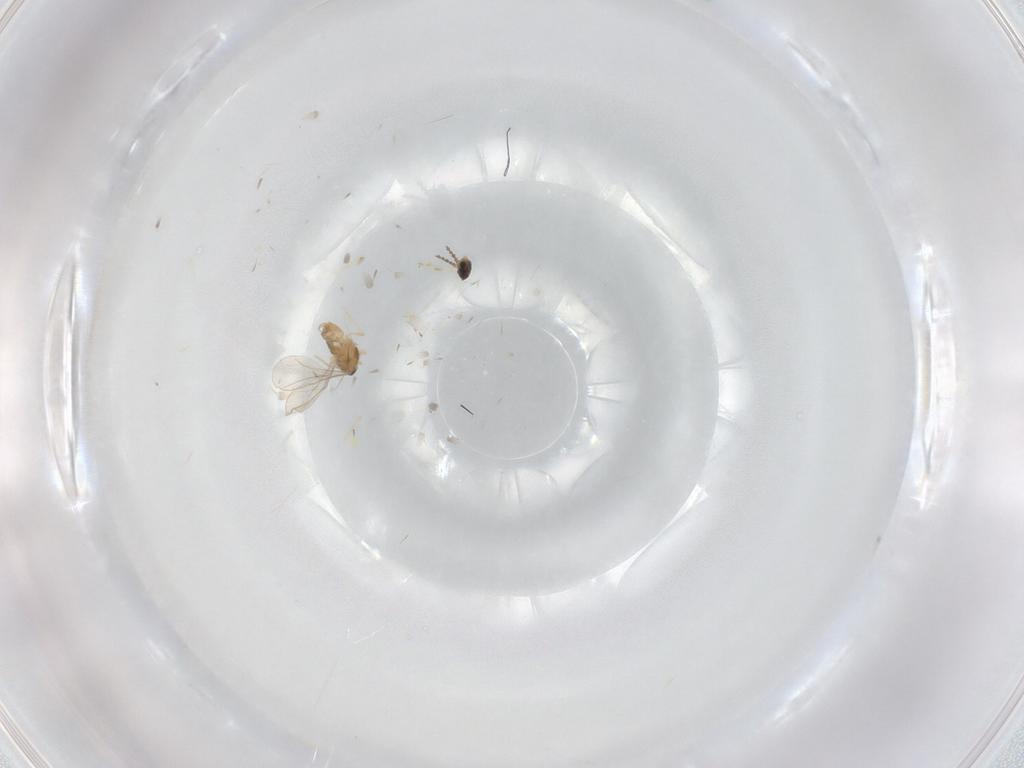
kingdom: Animalia
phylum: Arthropoda
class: Insecta
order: Diptera
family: Cecidomyiidae
